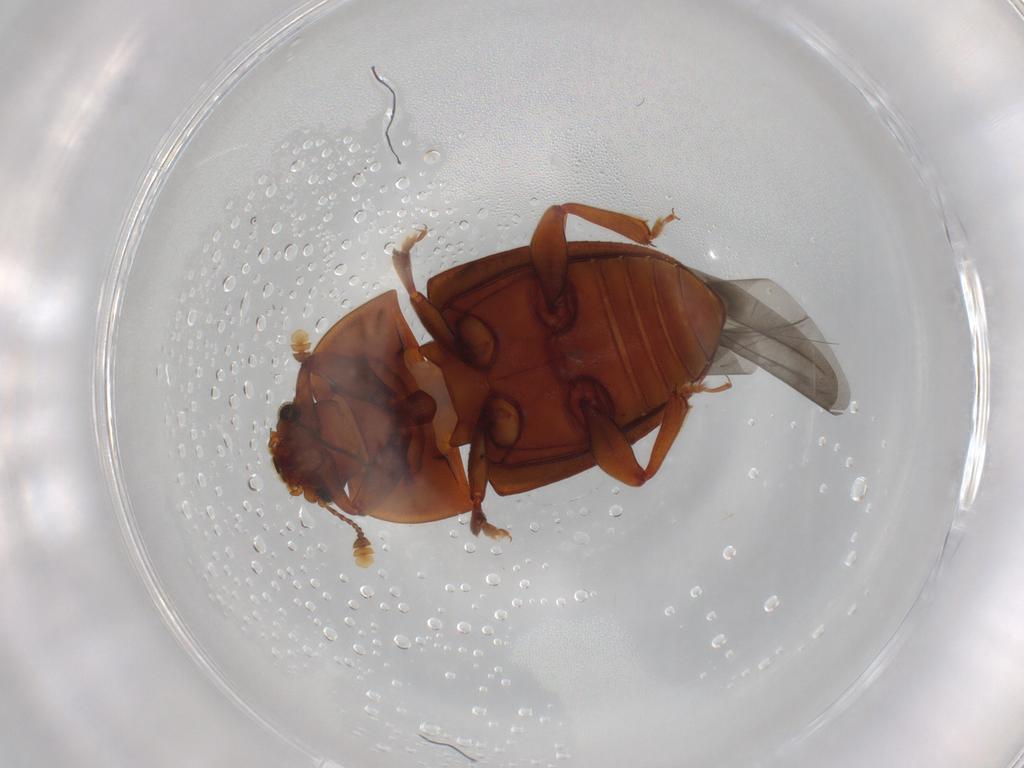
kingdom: Animalia
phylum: Arthropoda
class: Insecta
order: Coleoptera
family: Nitidulidae
